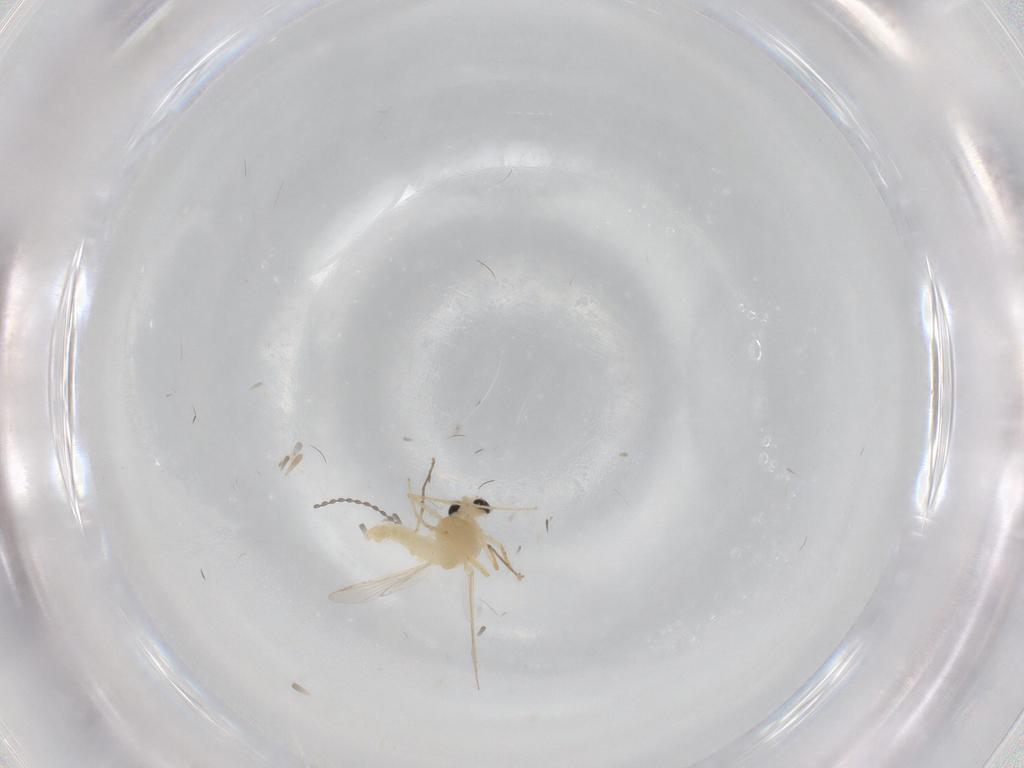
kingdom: Animalia
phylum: Arthropoda
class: Insecta
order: Diptera
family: Chironomidae
